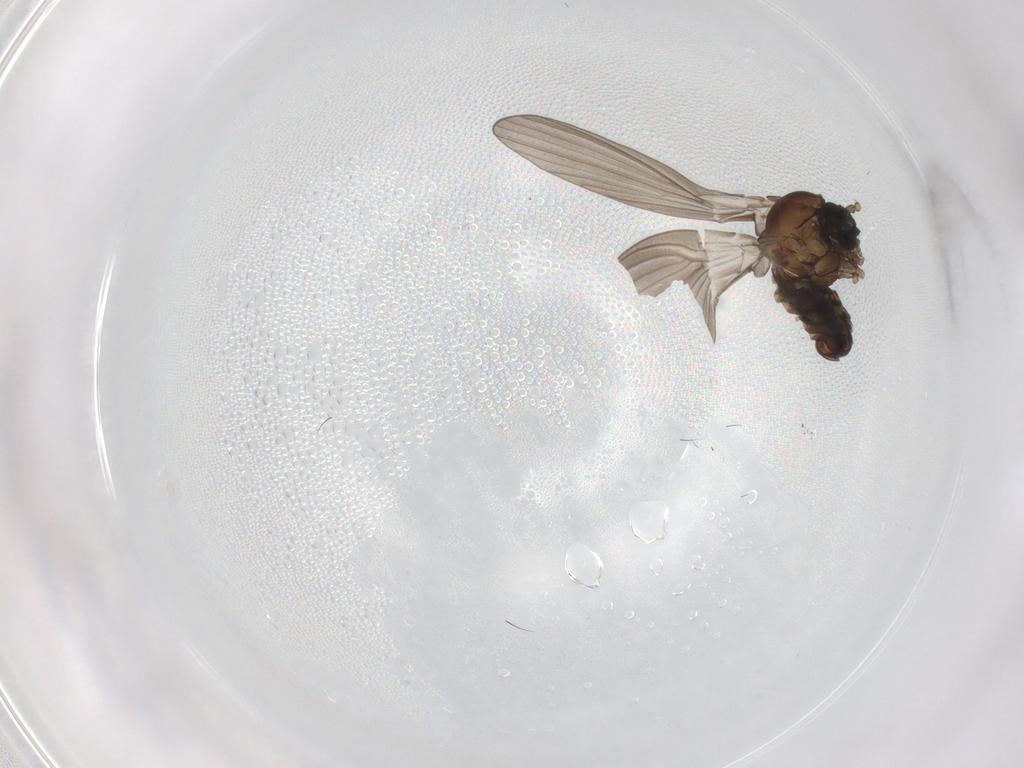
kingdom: Animalia
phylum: Arthropoda
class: Insecta
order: Diptera
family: Psychodidae
